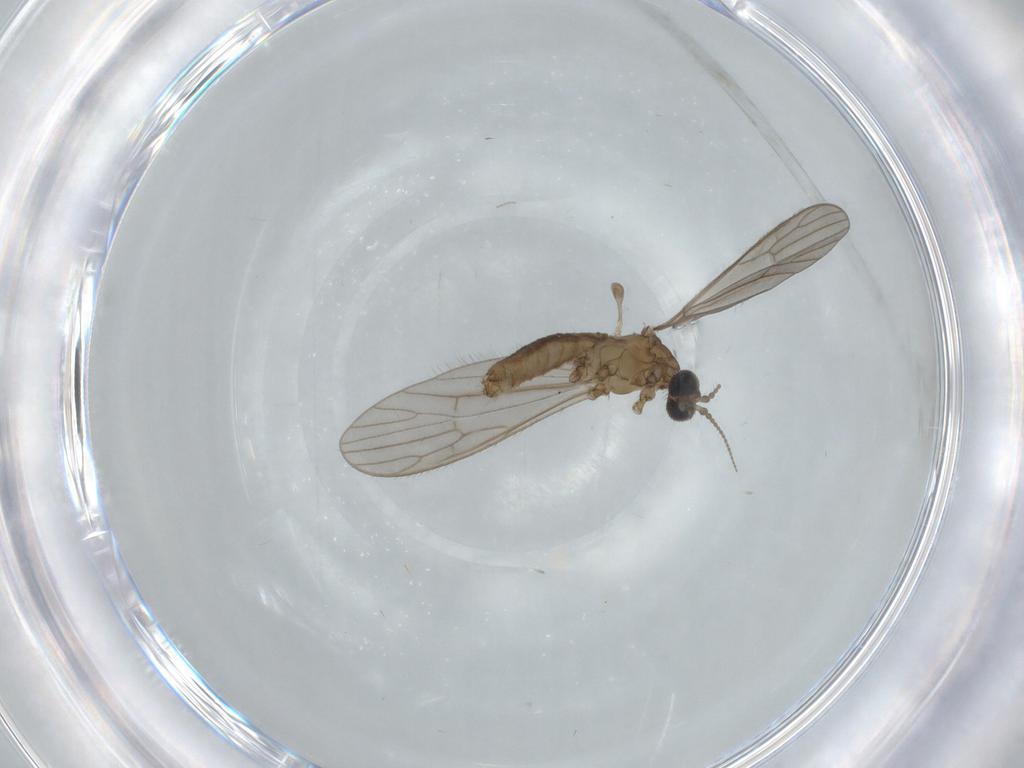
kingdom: Animalia
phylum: Arthropoda
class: Insecta
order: Diptera
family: Limoniidae
